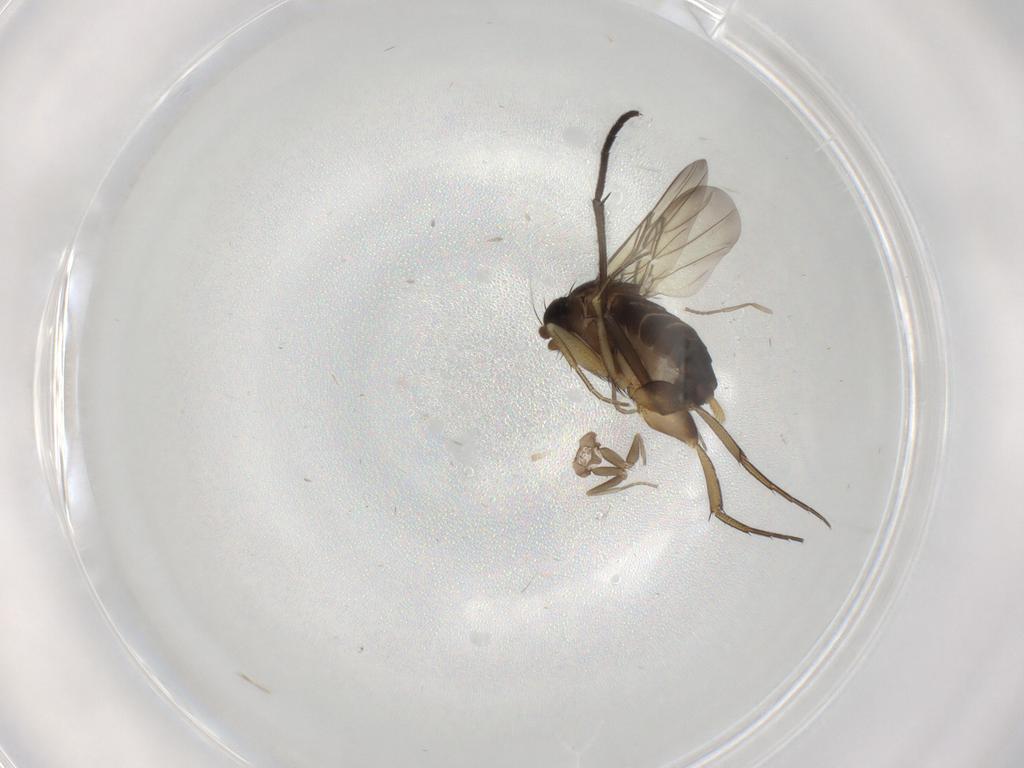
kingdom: Animalia
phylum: Arthropoda
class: Insecta
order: Diptera
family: Phoridae
